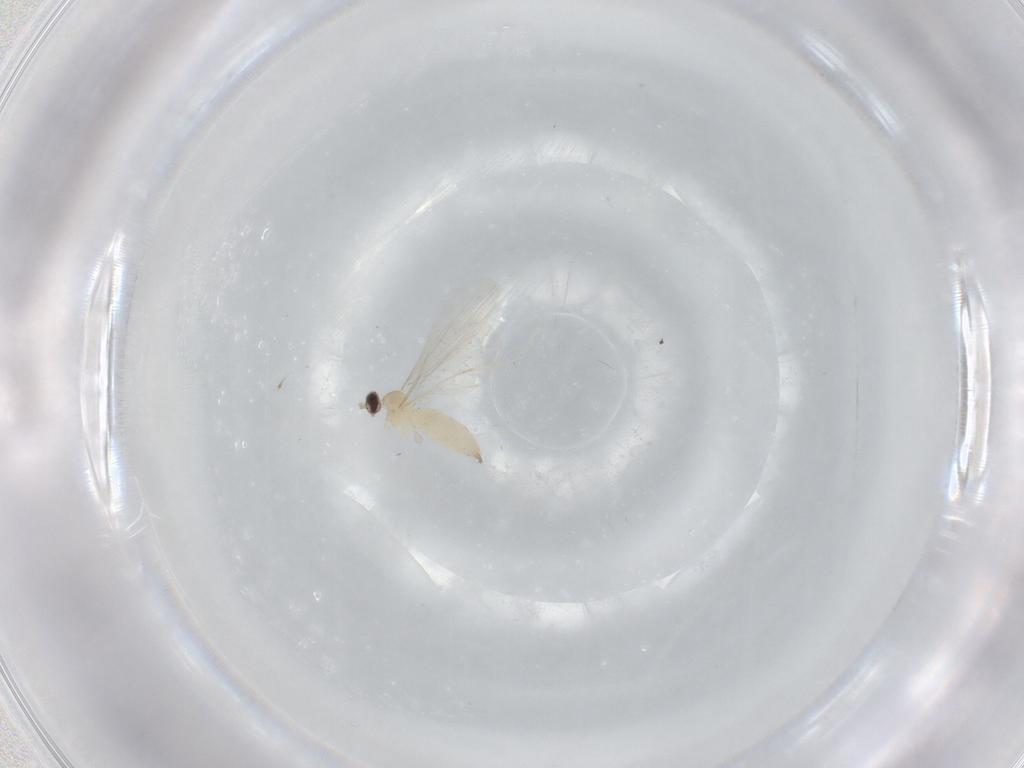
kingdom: Animalia
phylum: Arthropoda
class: Insecta
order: Diptera
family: Cecidomyiidae
